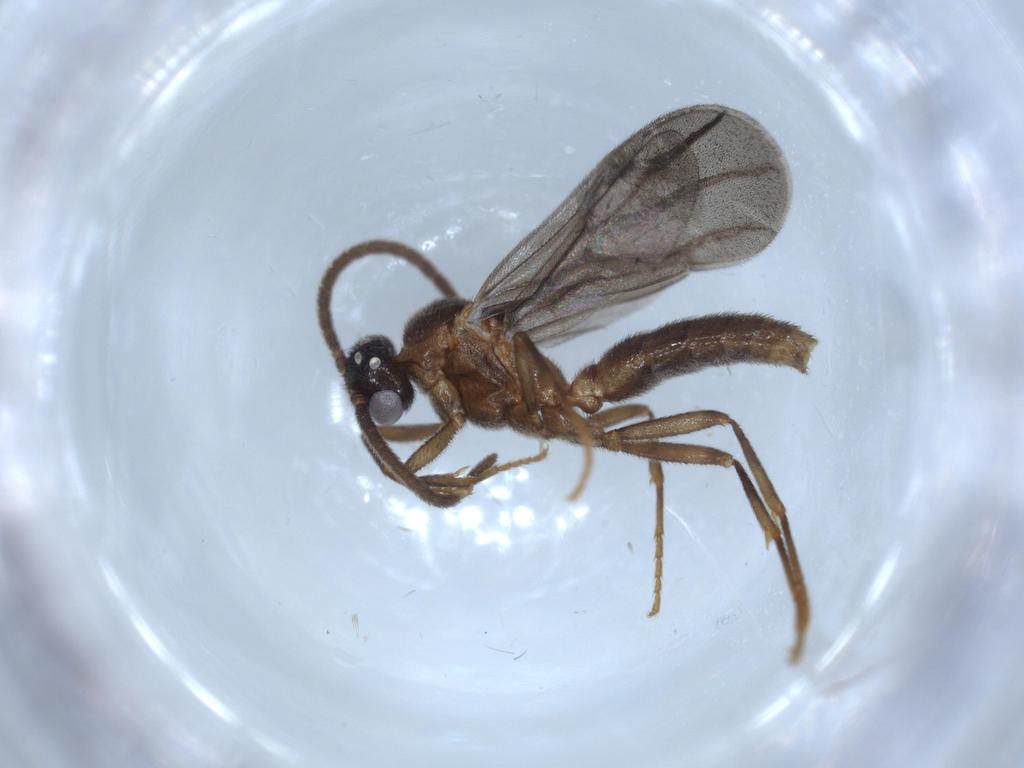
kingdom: Animalia
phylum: Arthropoda
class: Insecta
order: Hymenoptera
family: Formicidae
